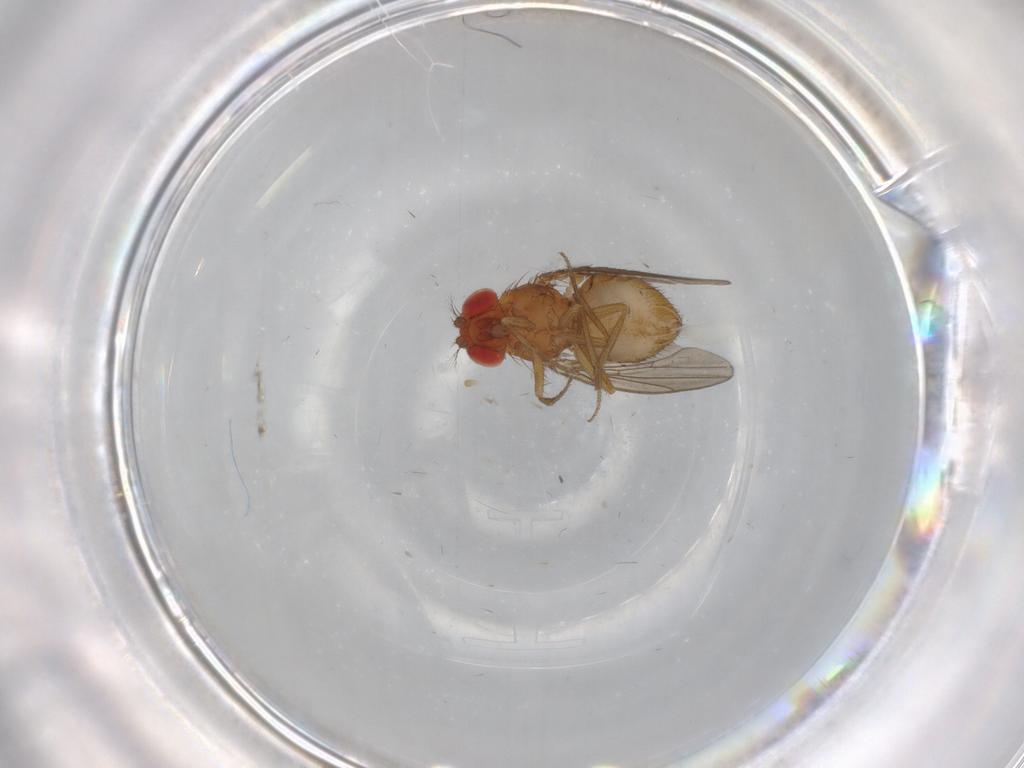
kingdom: Animalia
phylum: Arthropoda
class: Insecta
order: Diptera
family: Drosophilidae
